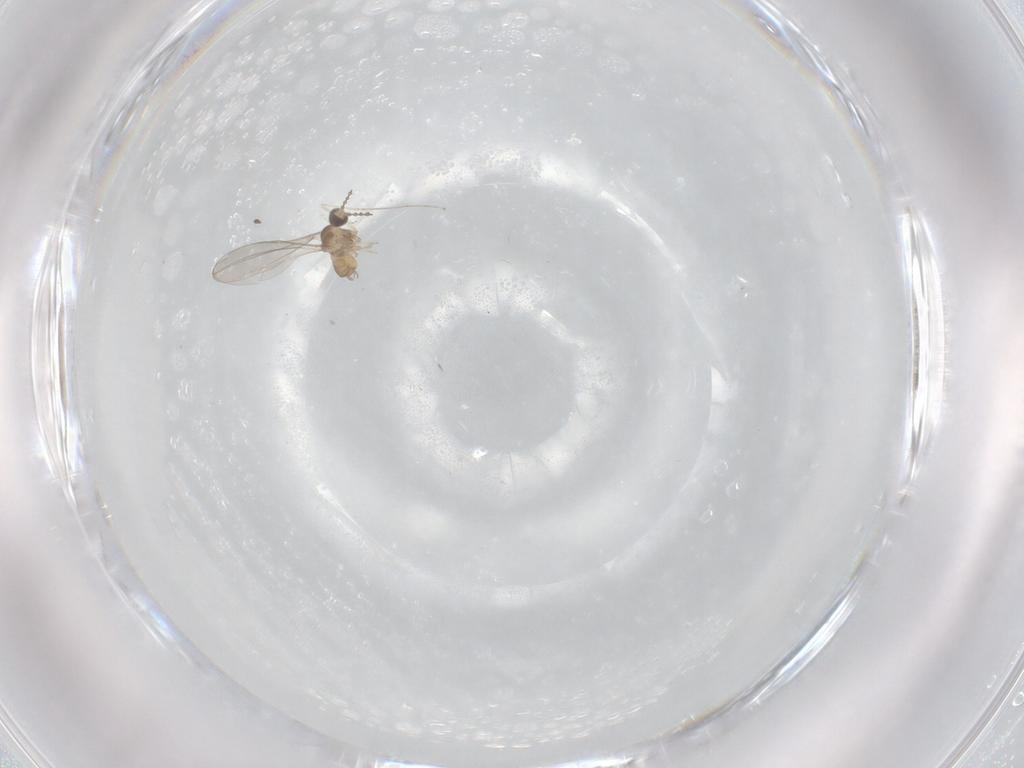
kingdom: Animalia
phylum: Arthropoda
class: Insecta
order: Diptera
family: Cecidomyiidae
